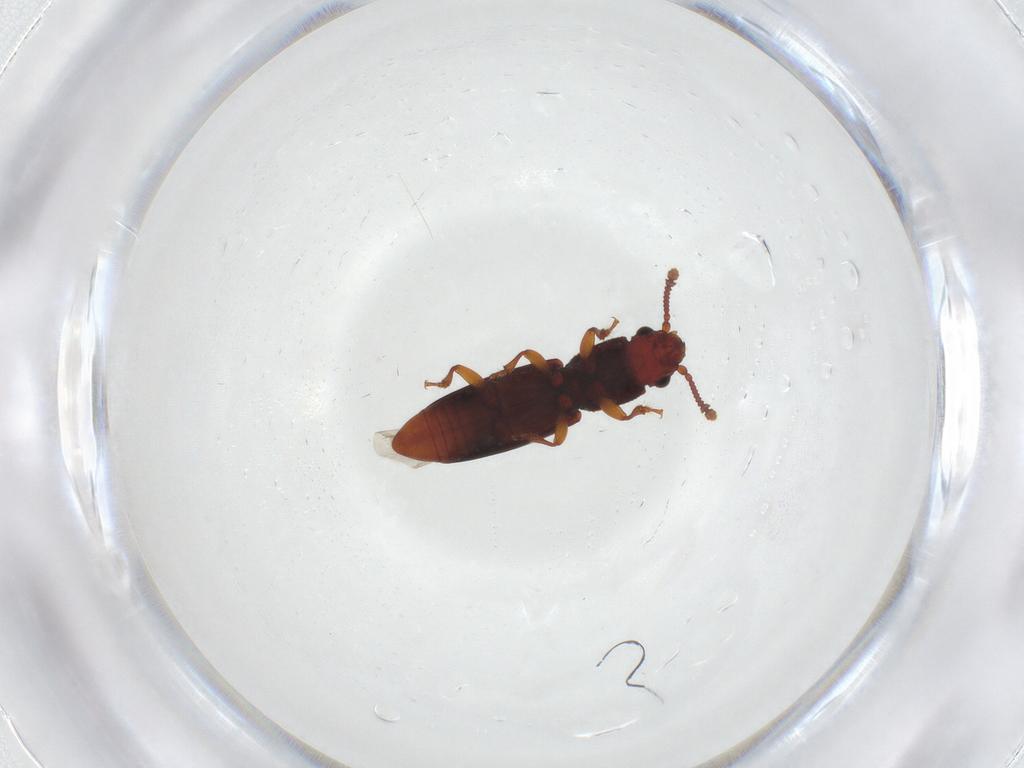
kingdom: Animalia
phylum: Arthropoda
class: Insecta
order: Coleoptera
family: Monotomidae
